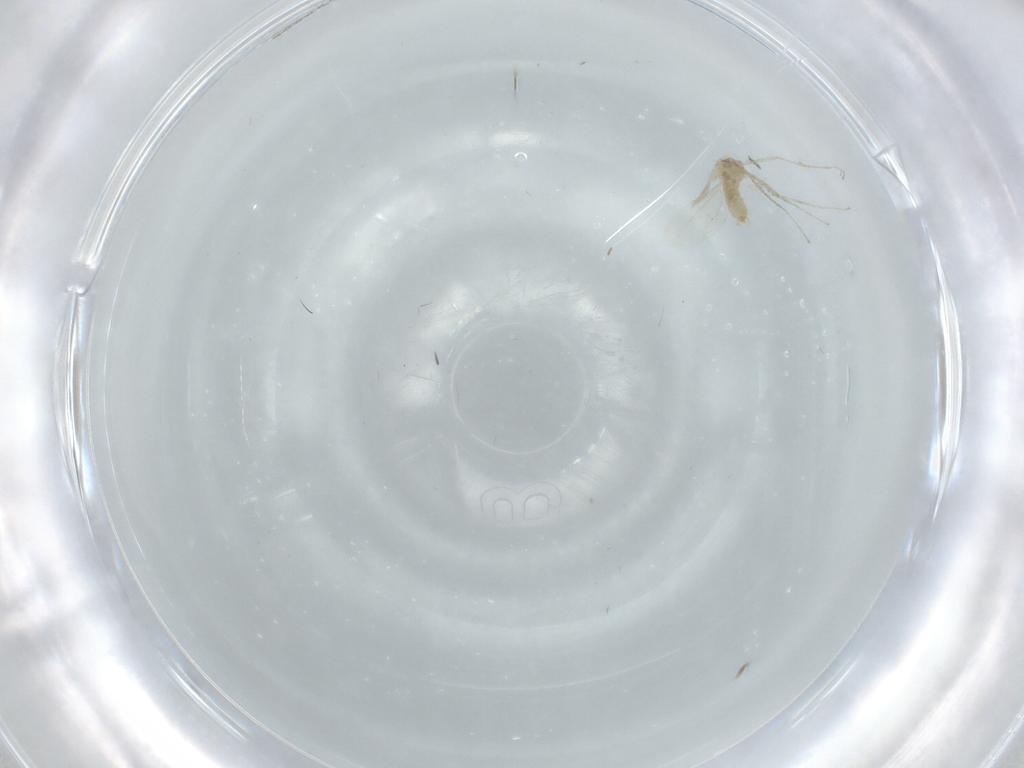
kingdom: Animalia
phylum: Arthropoda
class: Insecta
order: Diptera
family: Cecidomyiidae
